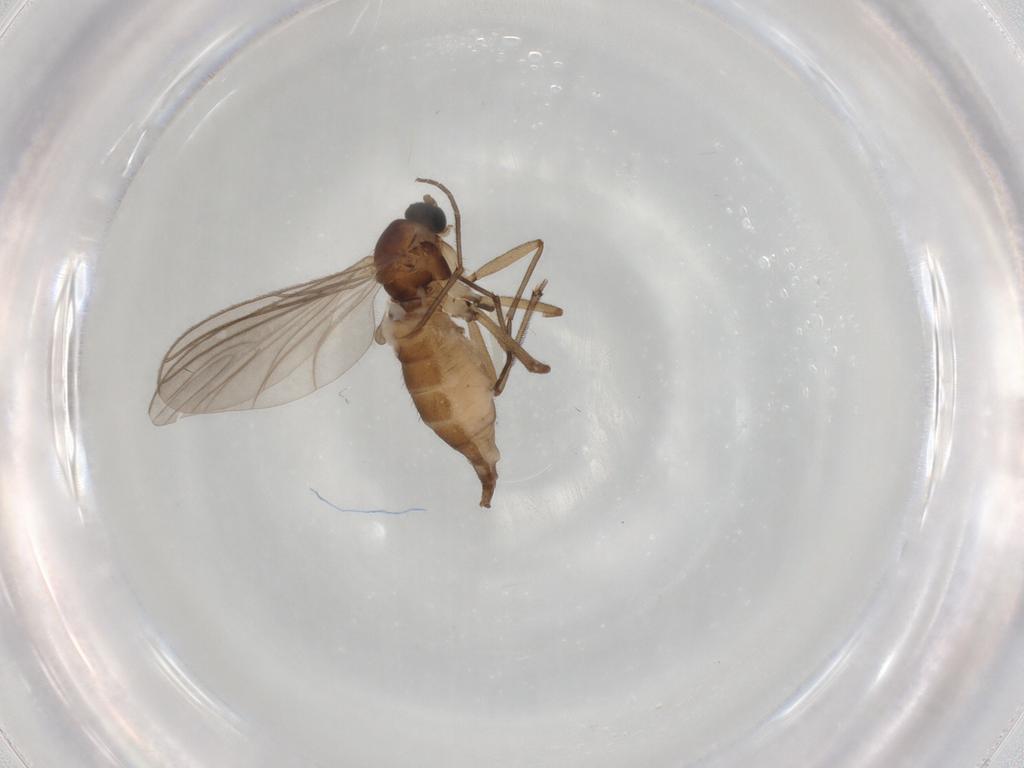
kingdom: Animalia
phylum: Arthropoda
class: Insecta
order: Diptera
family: Sciaridae
